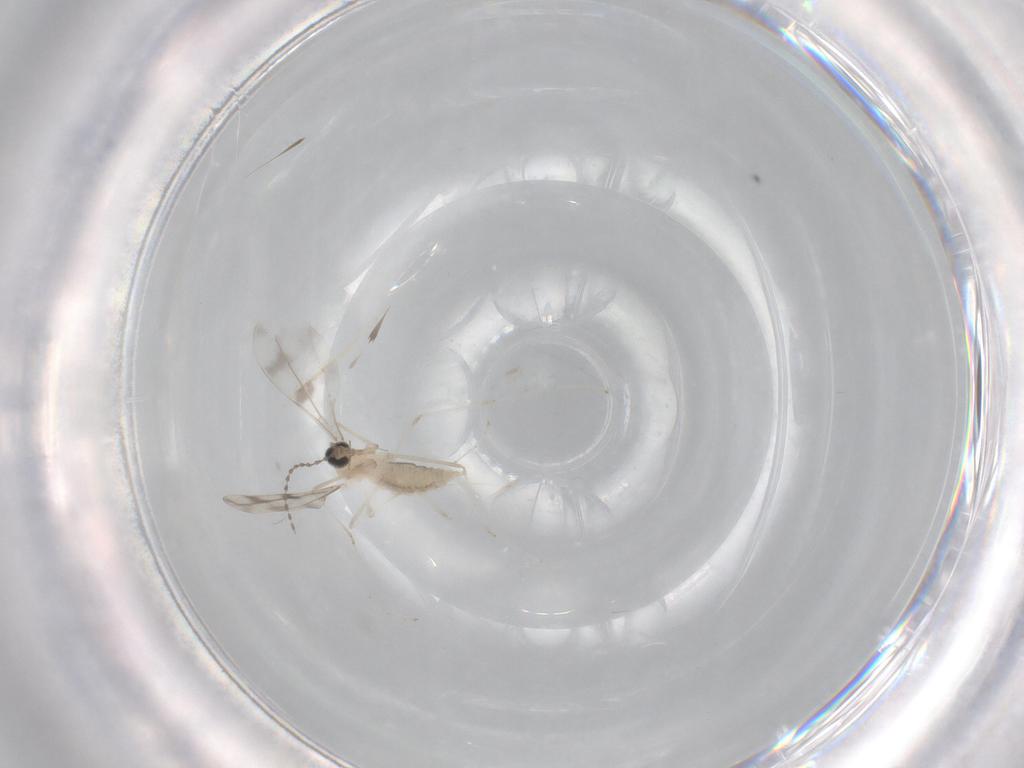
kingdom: Animalia
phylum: Arthropoda
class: Insecta
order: Diptera
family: Cecidomyiidae
